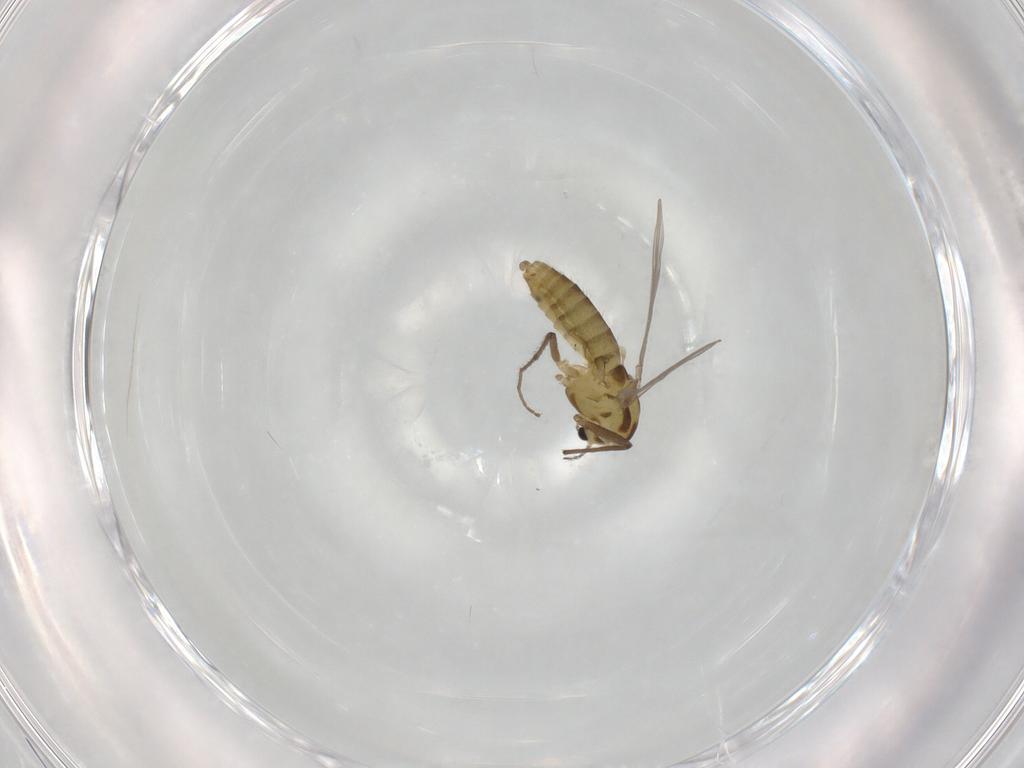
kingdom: Animalia
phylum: Arthropoda
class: Insecta
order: Diptera
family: Chironomidae
